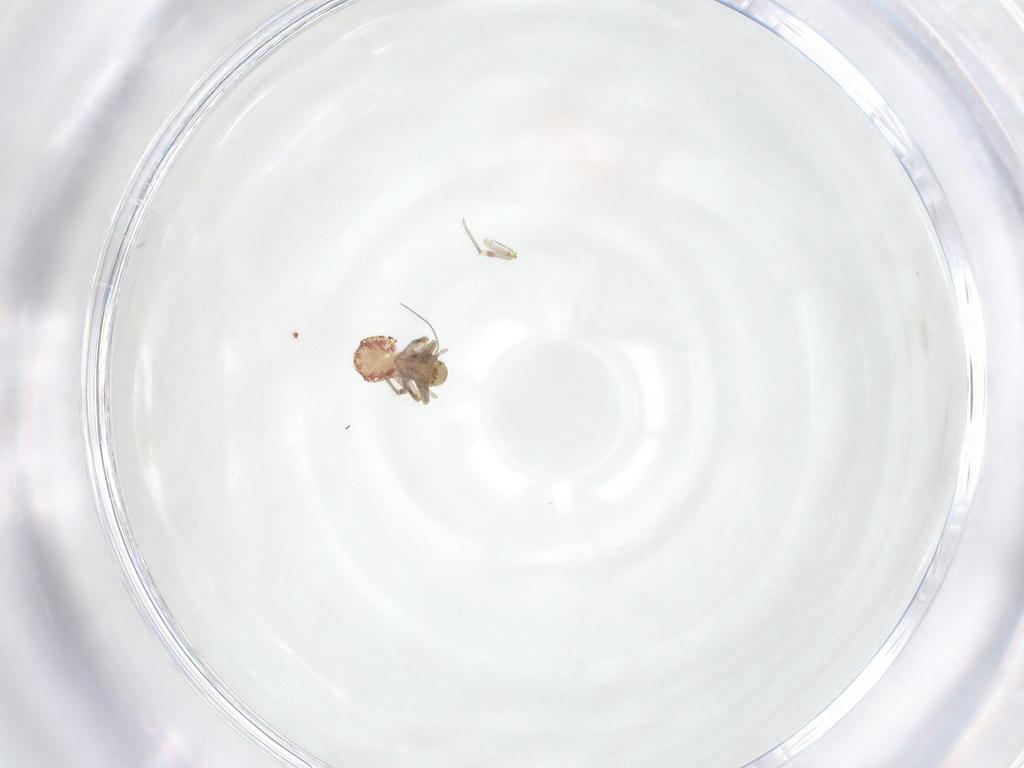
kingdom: Animalia
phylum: Arthropoda
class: Insecta
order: Psocodea
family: Philotarsidae
